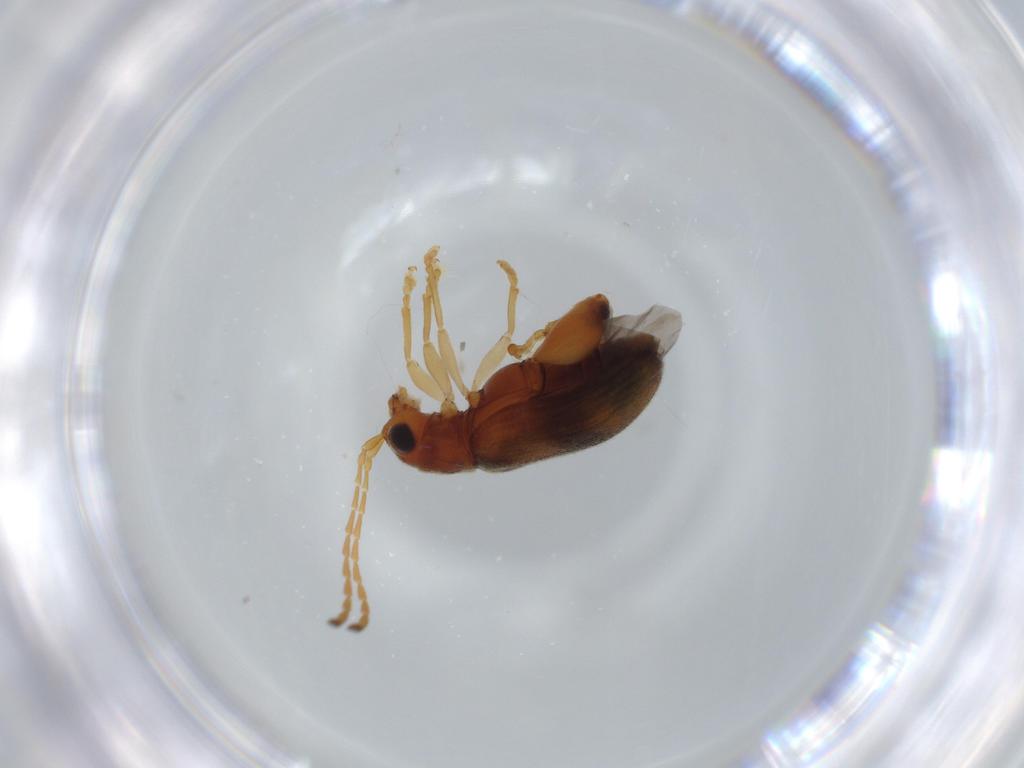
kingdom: Animalia
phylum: Arthropoda
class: Insecta
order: Coleoptera
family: Chrysomelidae
